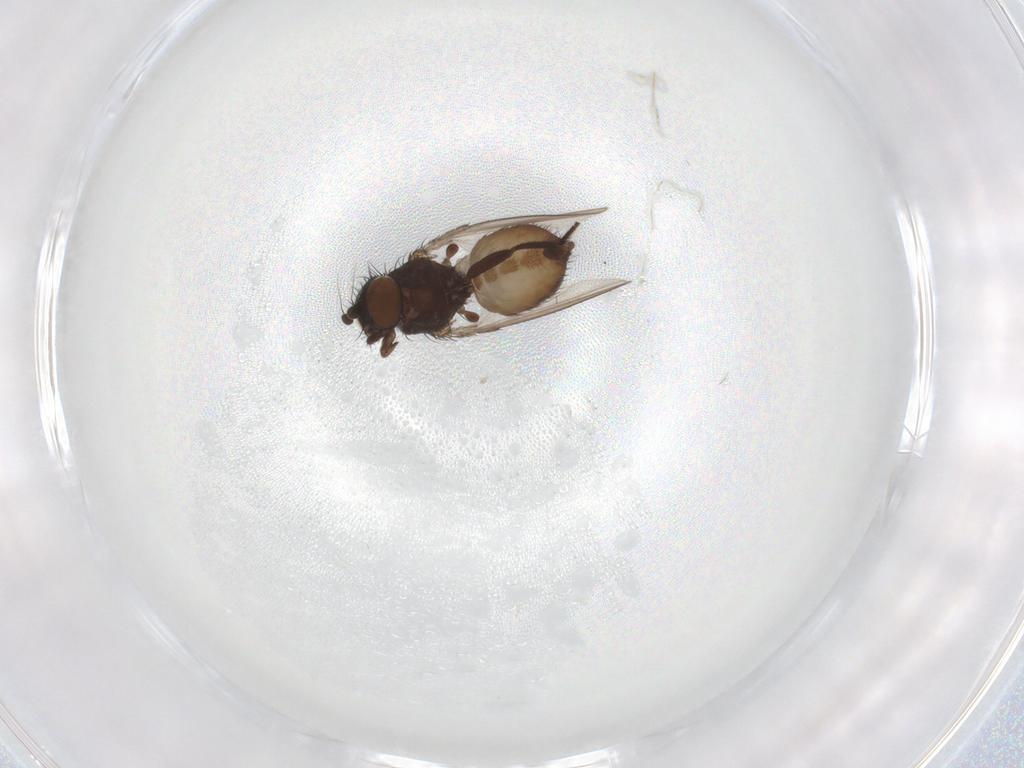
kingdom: Animalia
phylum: Arthropoda
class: Insecta
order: Diptera
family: Milichiidae
